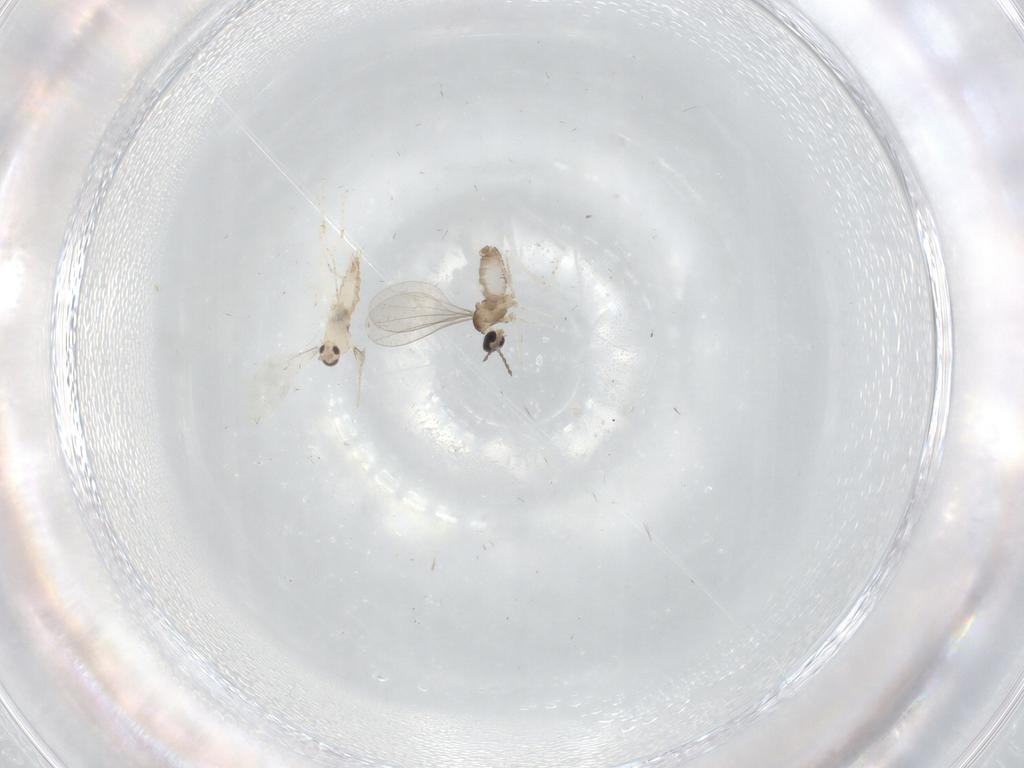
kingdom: Animalia
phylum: Arthropoda
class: Insecta
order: Diptera
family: Cecidomyiidae
